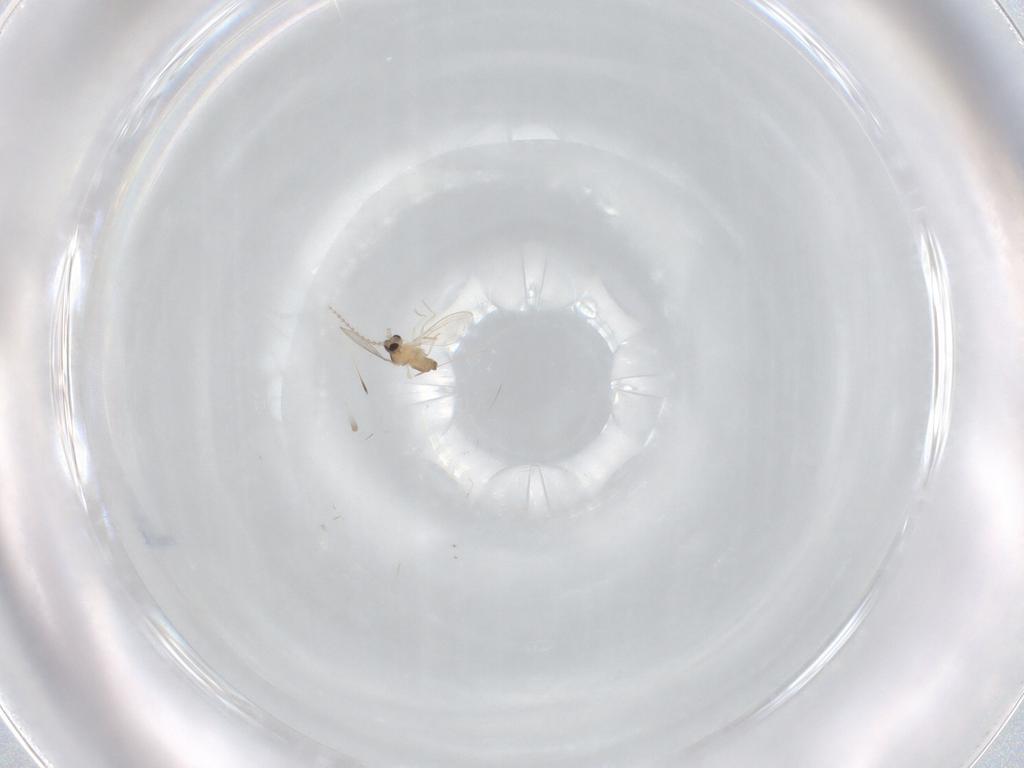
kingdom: Animalia
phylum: Arthropoda
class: Insecta
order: Diptera
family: Cecidomyiidae
